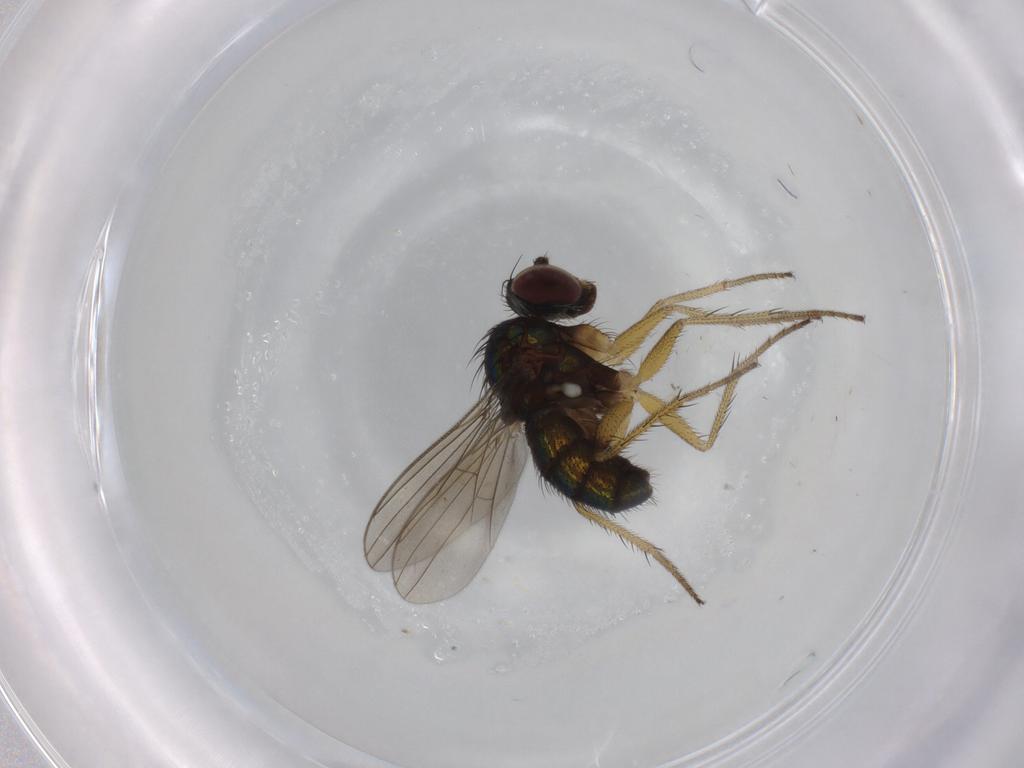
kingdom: Animalia
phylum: Arthropoda
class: Insecta
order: Diptera
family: Dolichopodidae
